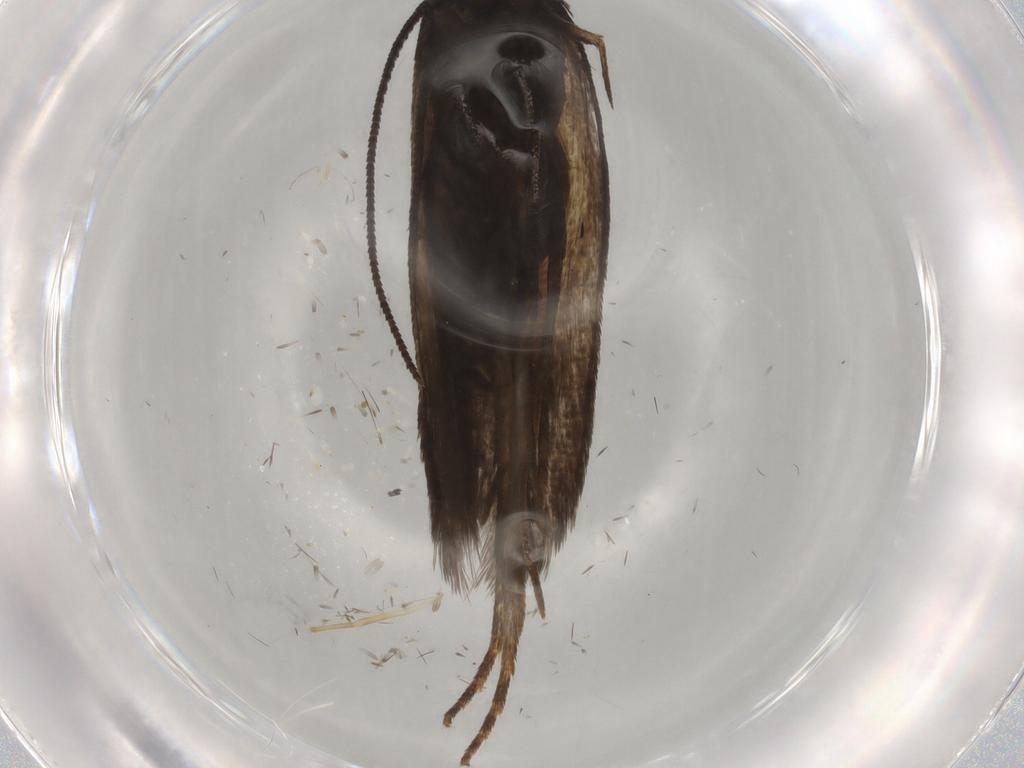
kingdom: Animalia
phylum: Arthropoda
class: Insecta
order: Lepidoptera
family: Gelechiidae
